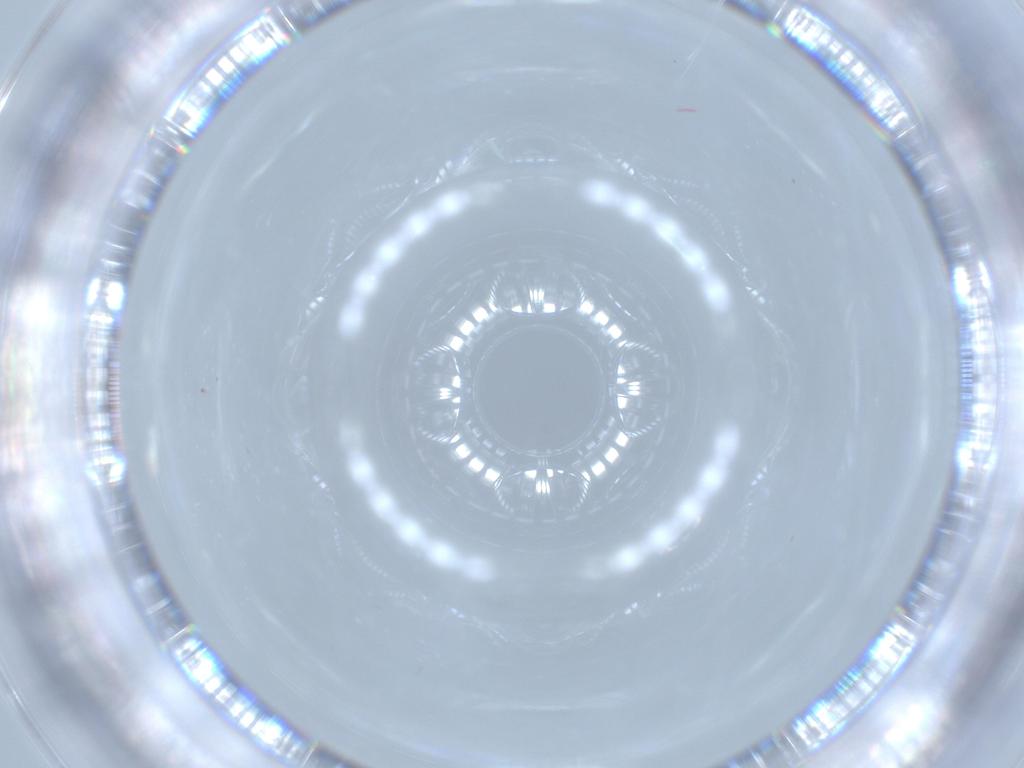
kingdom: Animalia
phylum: Arthropoda
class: Insecta
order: Diptera
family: Cecidomyiidae
